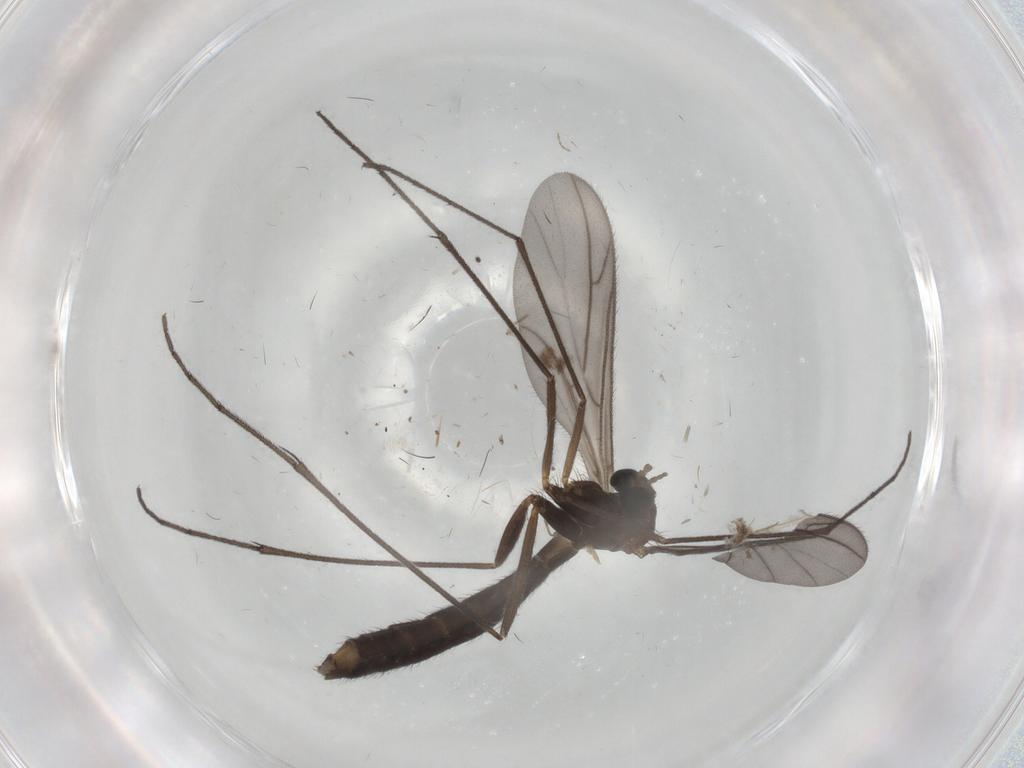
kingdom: Animalia
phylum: Arthropoda
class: Insecta
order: Diptera
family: Keroplatidae
